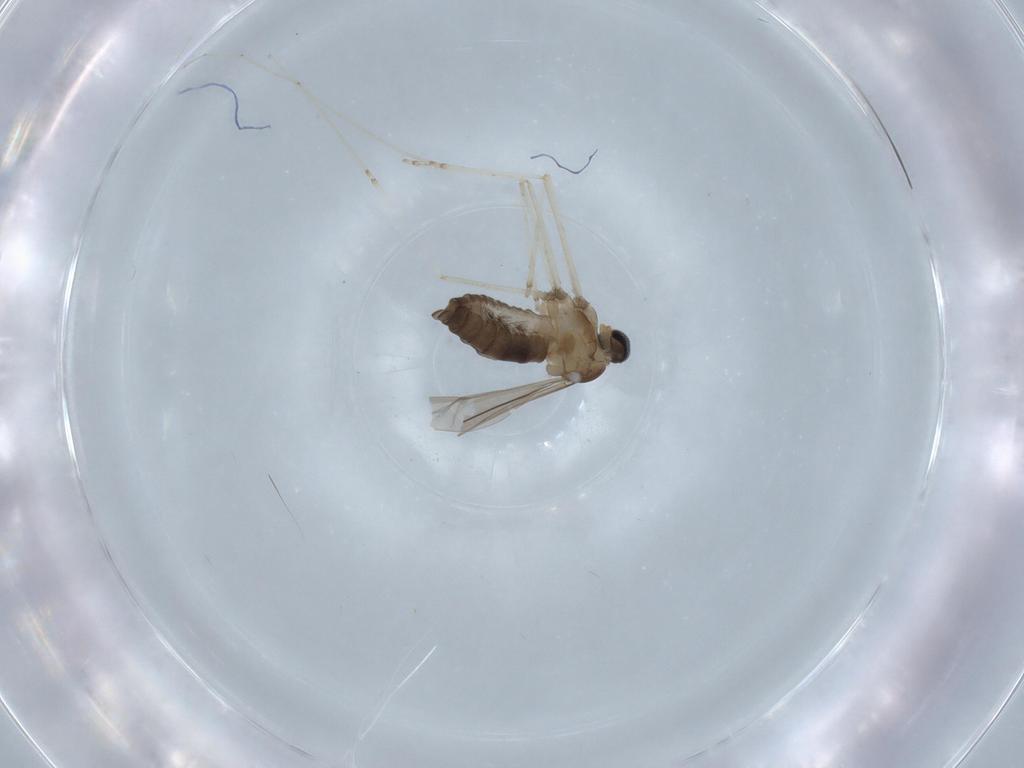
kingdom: Animalia
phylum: Arthropoda
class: Insecta
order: Diptera
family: Cecidomyiidae
